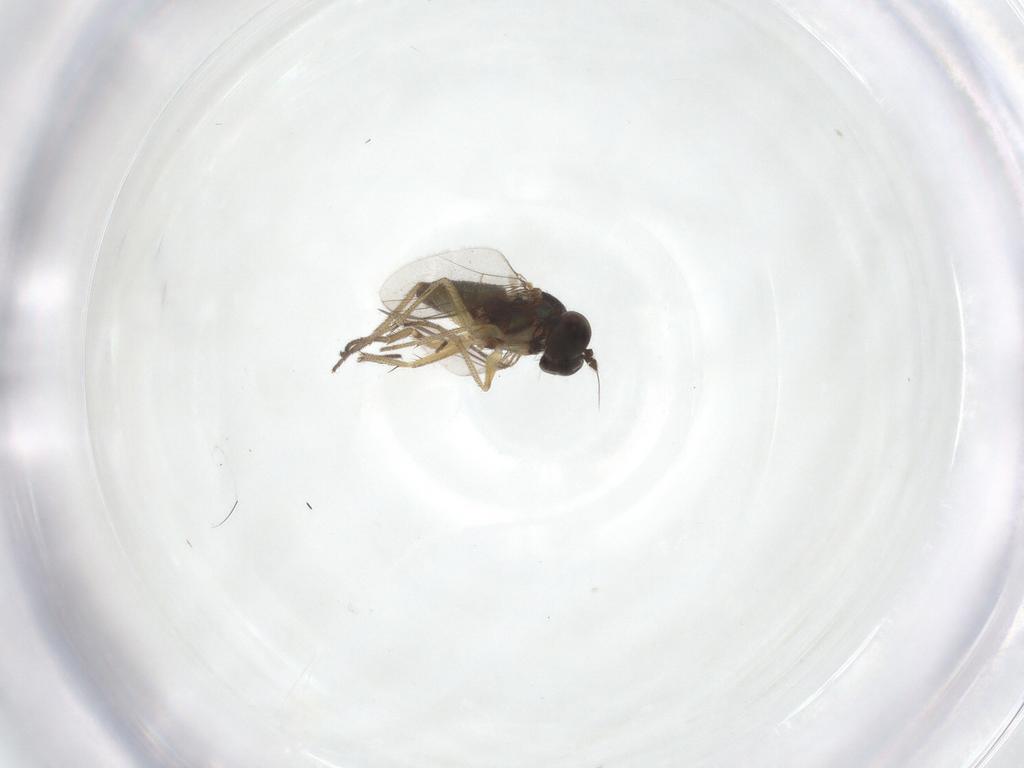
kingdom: Animalia
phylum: Arthropoda
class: Insecta
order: Diptera
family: Dolichopodidae
